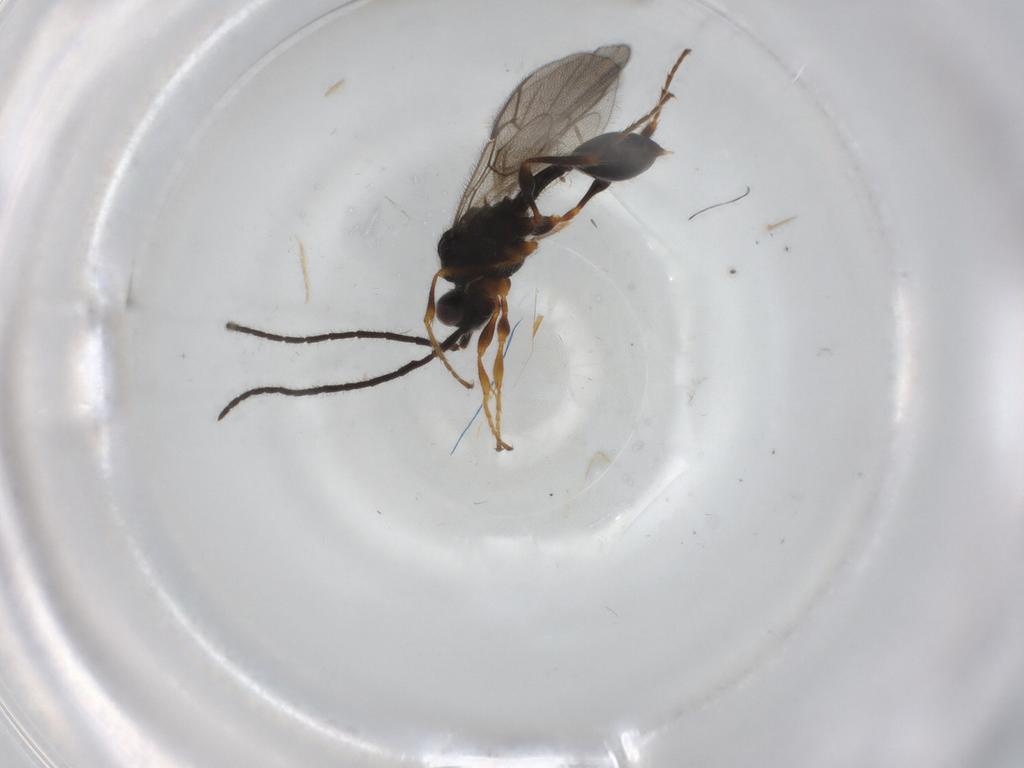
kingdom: Animalia
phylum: Arthropoda
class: Insecta
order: Hymenoptera
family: Diapriidae
